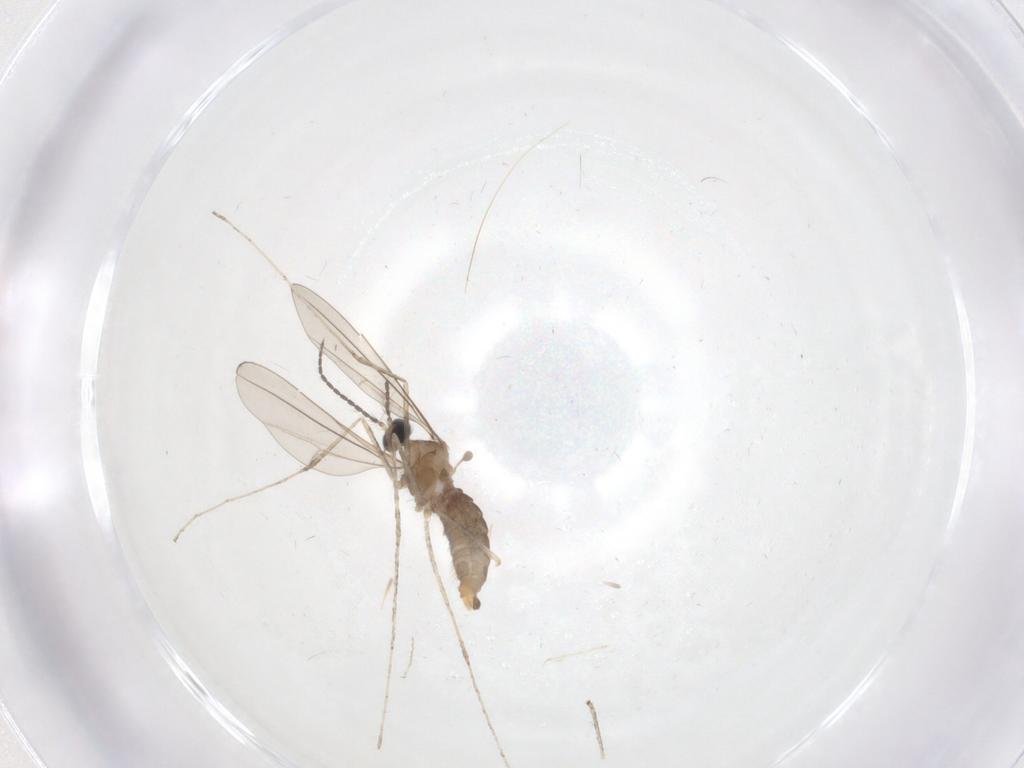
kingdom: Animalia
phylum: Arthropoda
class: Insecta
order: Diptera
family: Cecidomyiidae
